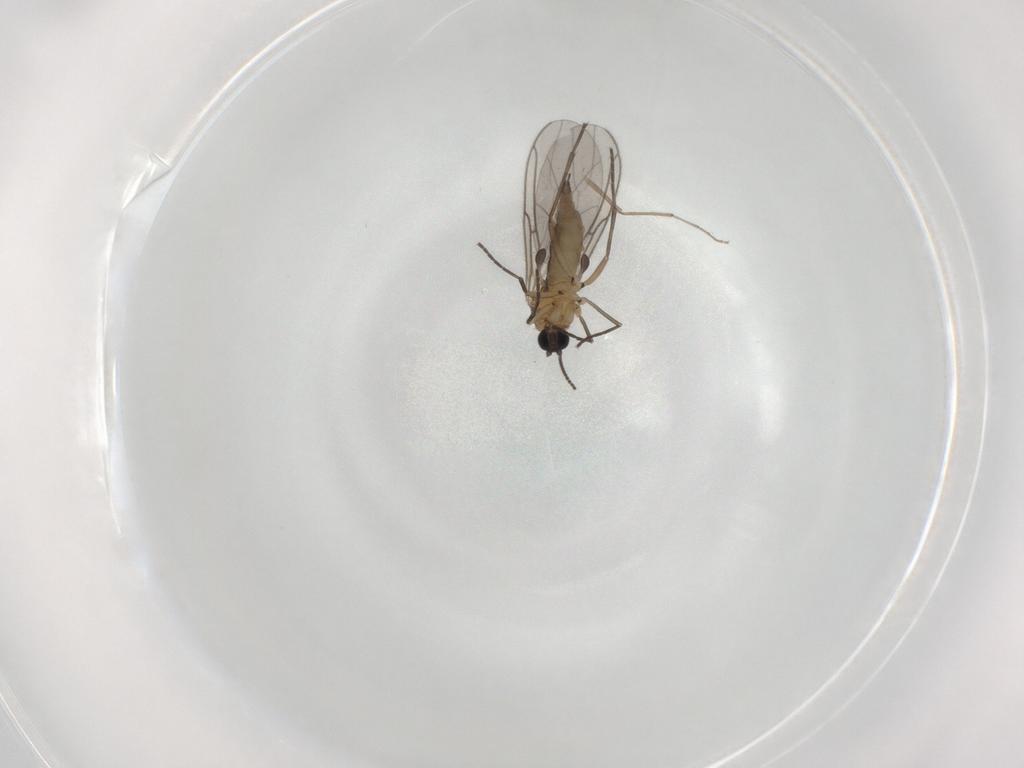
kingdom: Animalia
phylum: Arthropoda
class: Insecta
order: Diptera
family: Sciaridae
